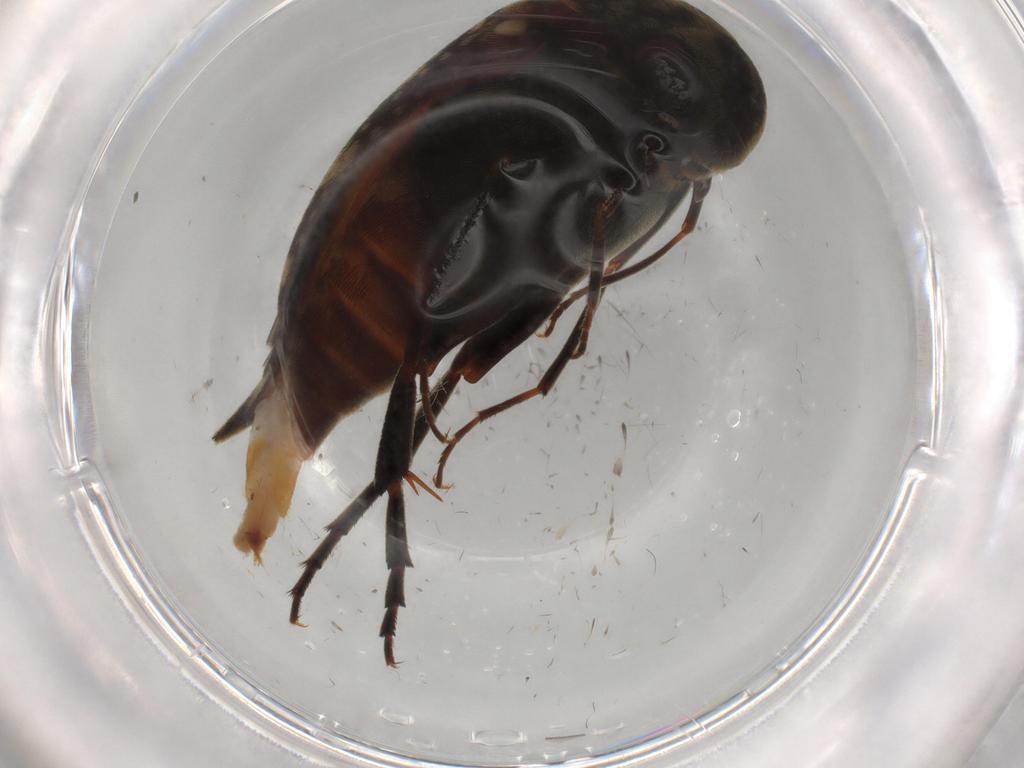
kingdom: Animalia
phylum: Arthropoda
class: Insecta
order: Coleoptera
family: Mordellidae
